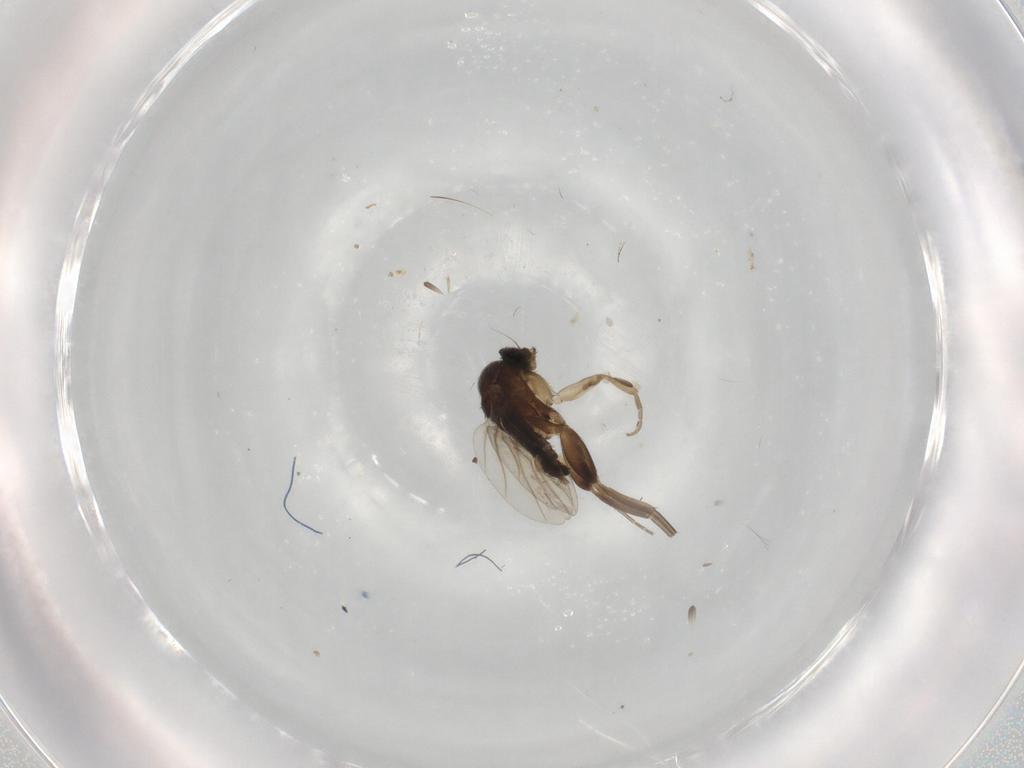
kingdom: Animalia
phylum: Arthropoda
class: Insecta
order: Diptera
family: Phoridae
